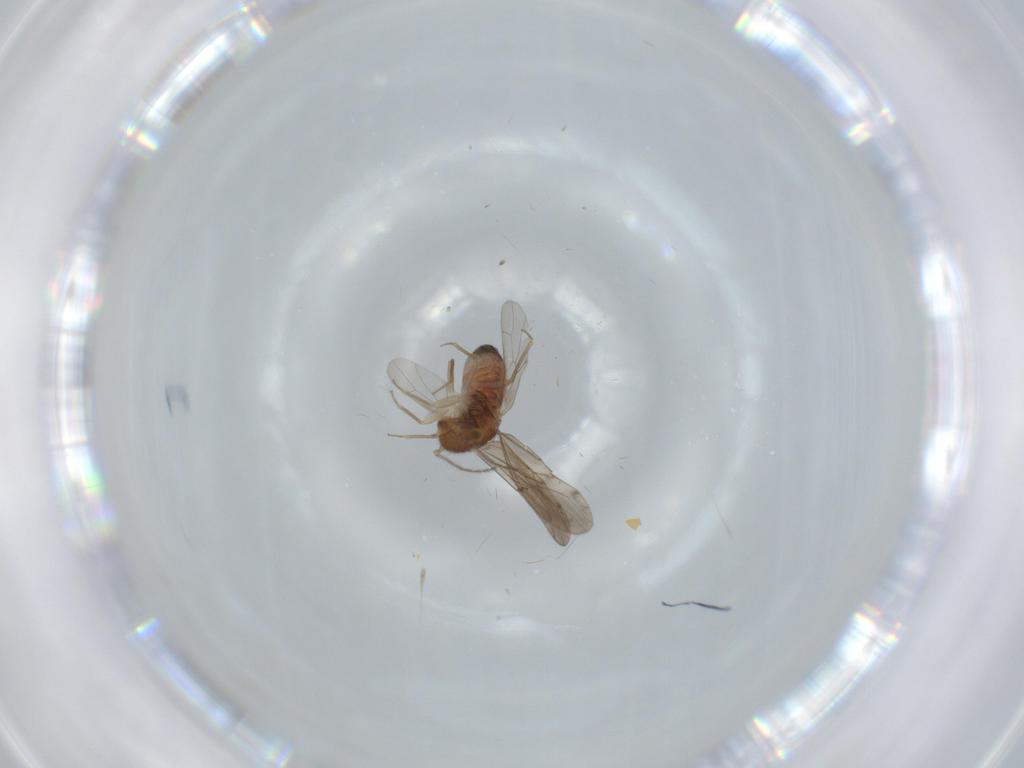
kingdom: Animalia
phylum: Arthropoda
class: Insecta
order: Psocodea
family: Ectopsocidae
